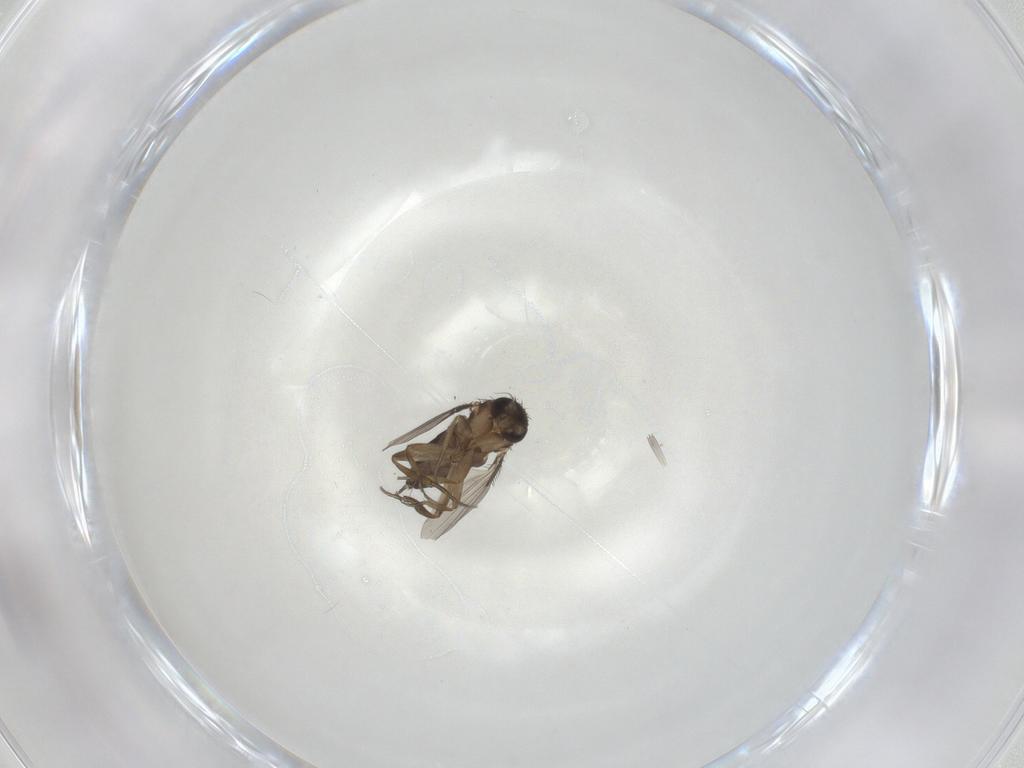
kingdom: Animalia
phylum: Arthropoda
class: Insecta
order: Diptera
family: Phoridae
